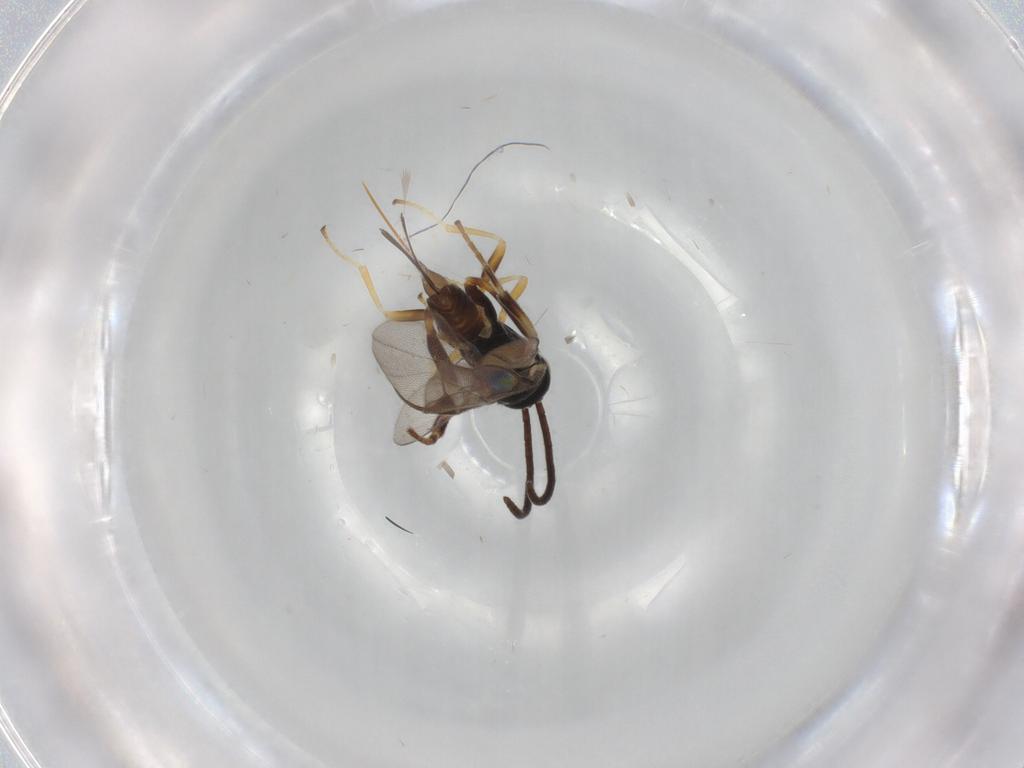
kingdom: Animalia
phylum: Arthropoda
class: Insecta
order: Hymenoptera
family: Braconidae
